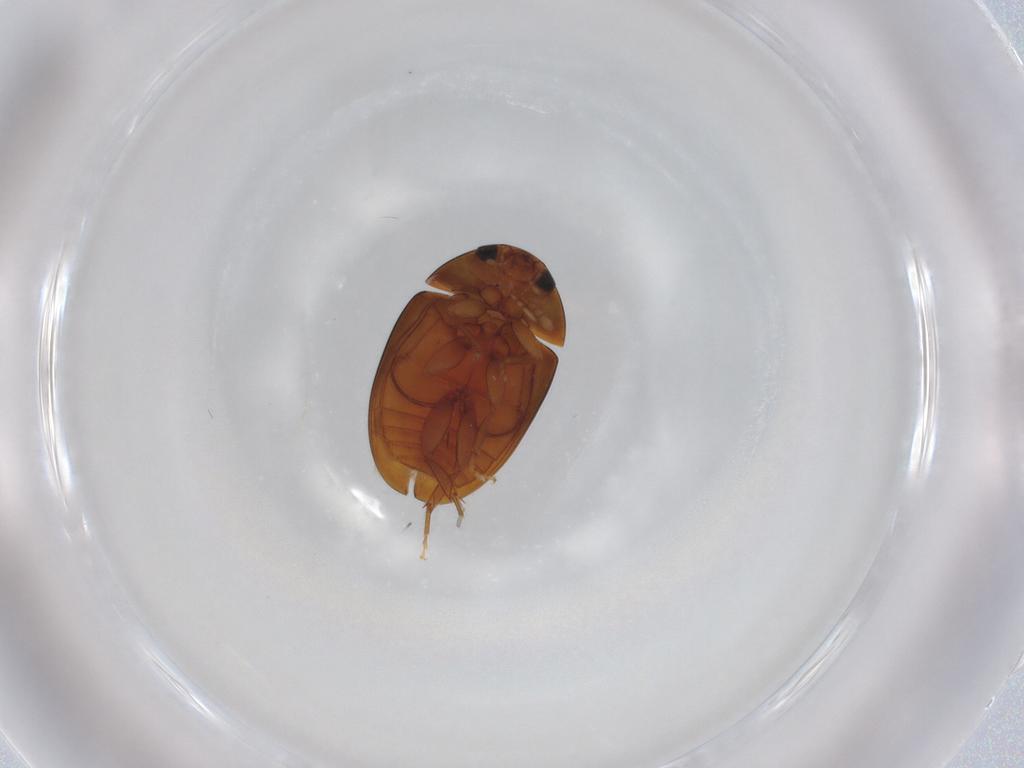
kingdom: Animalia
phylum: Arthropoda
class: Insecta
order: Coleoptera
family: Phalacridae
